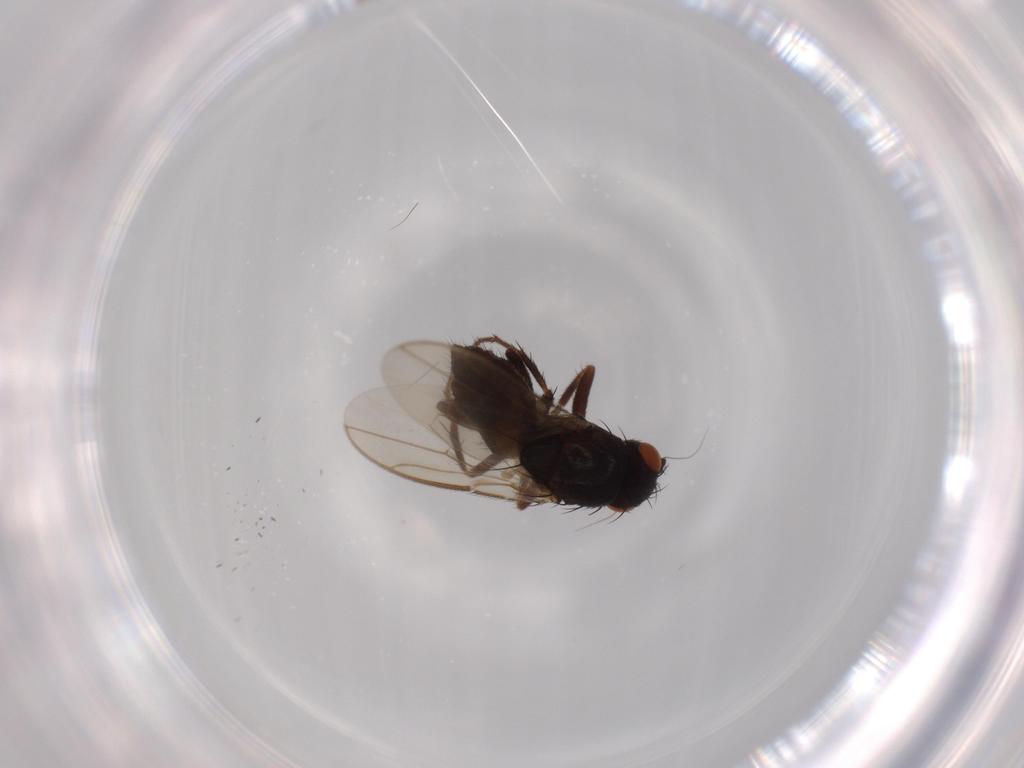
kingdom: Animalia
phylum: Arthropoda
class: Insecta
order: Diptera
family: Sphaeroceridae
